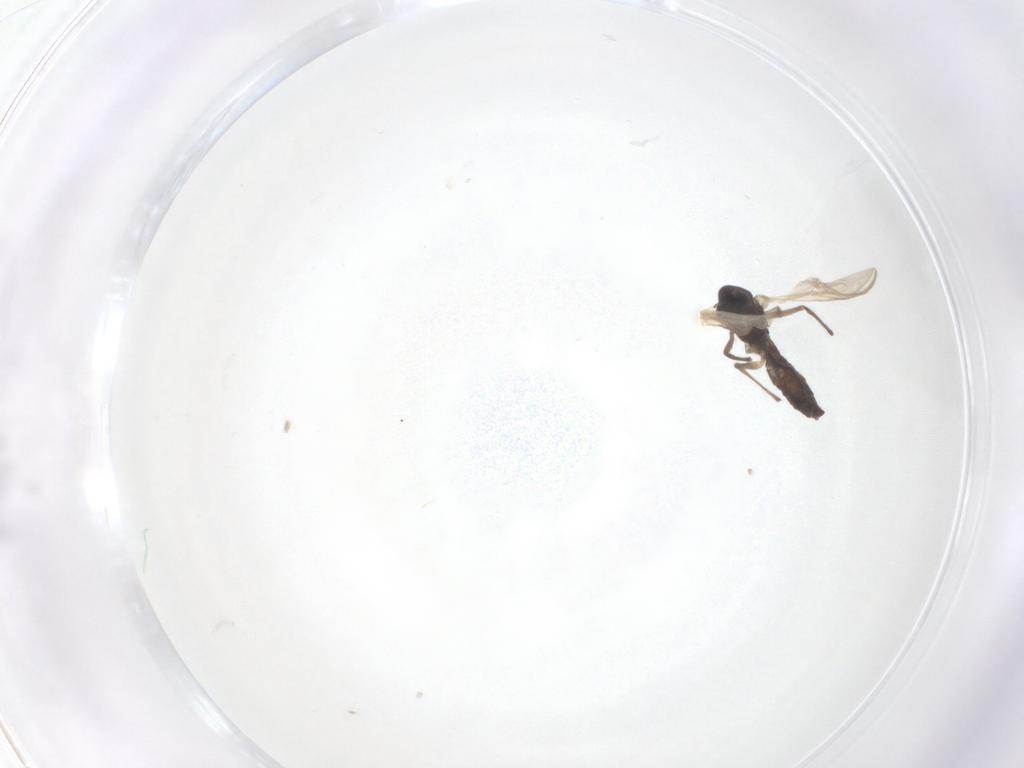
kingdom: Animalia
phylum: Arthropoda
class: Insecta
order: Diptera
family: Chironomidae
